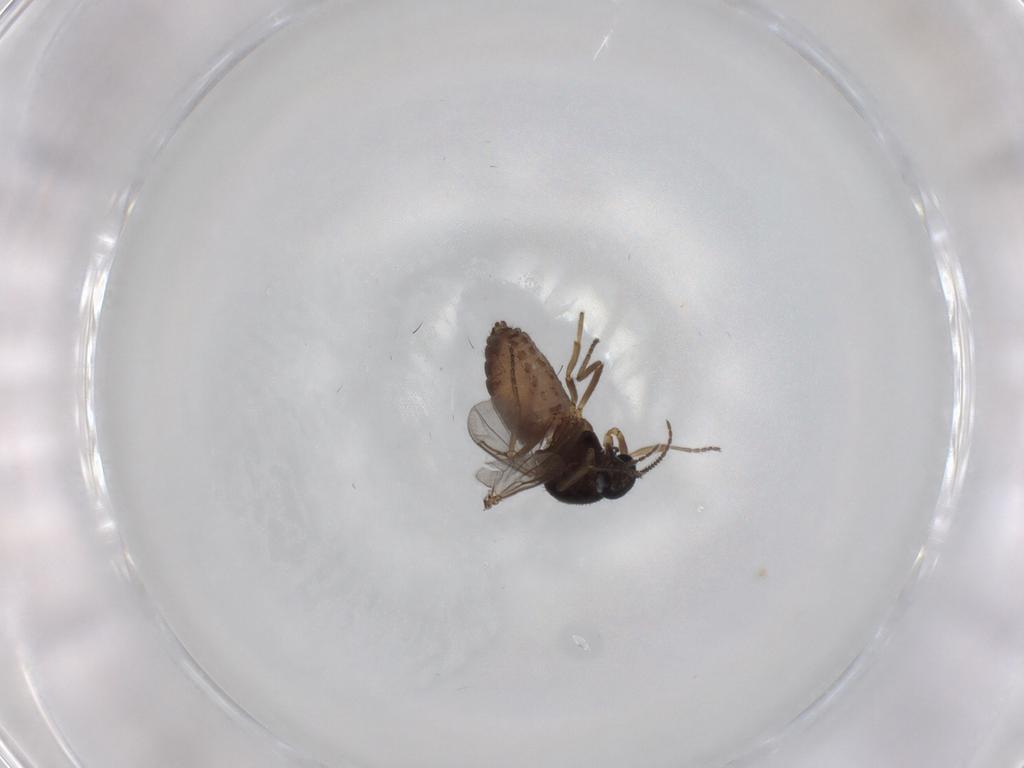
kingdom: Animalia
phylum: Arthropoda
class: Insecta
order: Diptera
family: Ceratopogonidae
